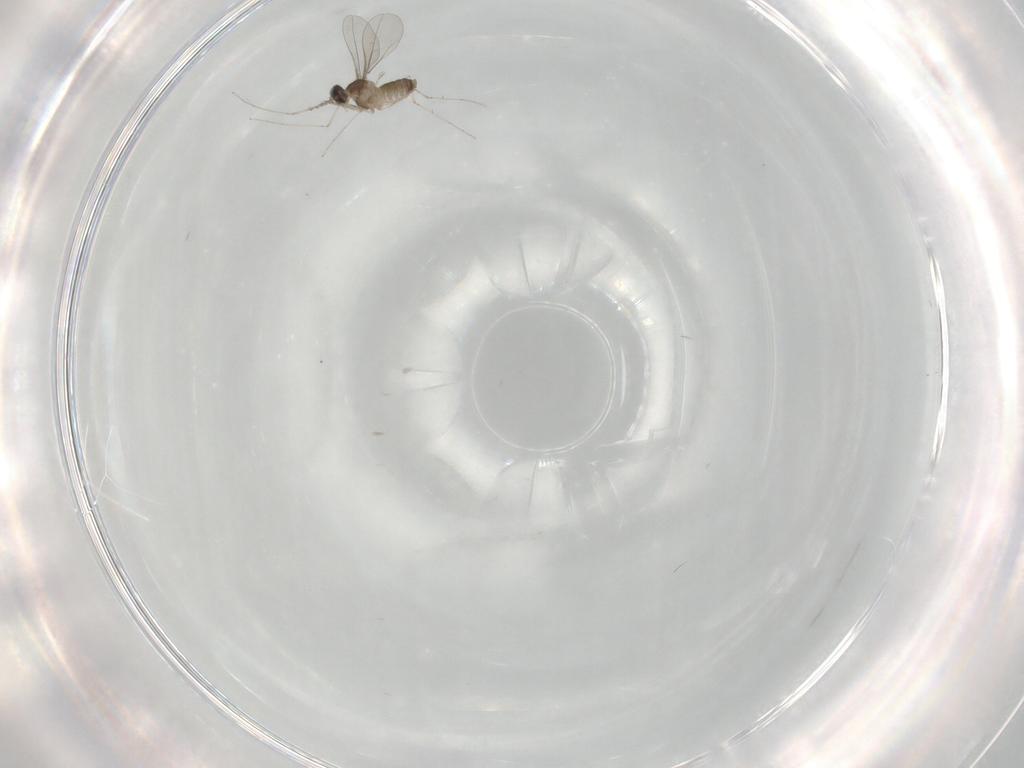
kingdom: Animalia
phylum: Arthropoda
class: Insecta
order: Diptera
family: Cecidomyiidae
